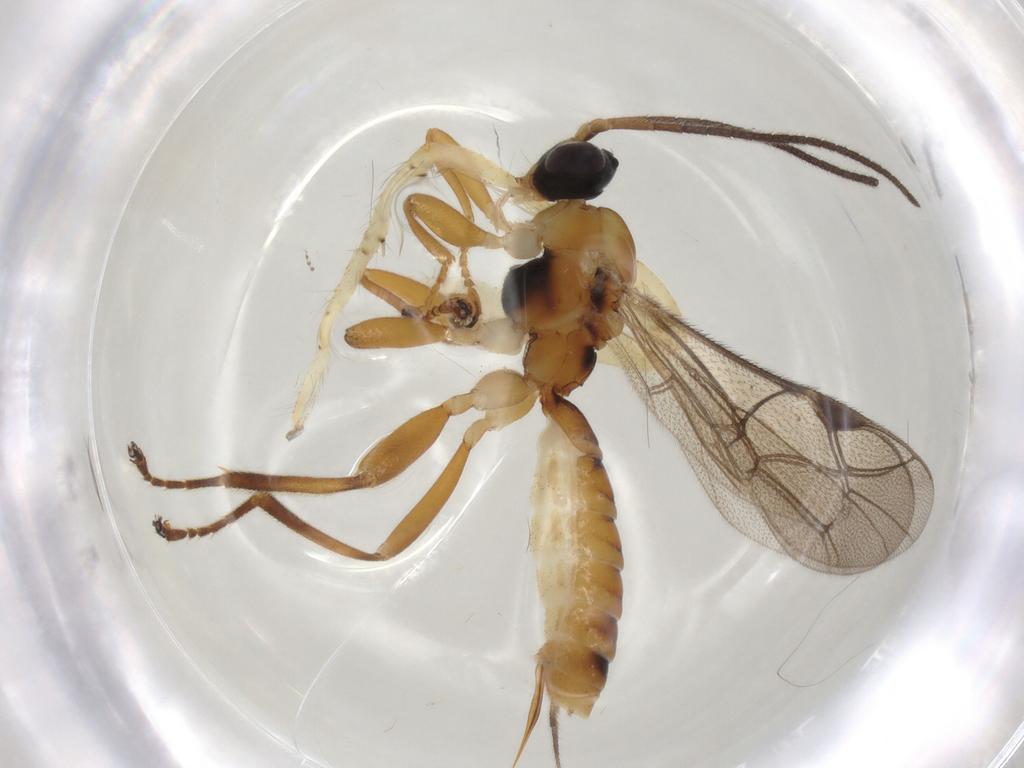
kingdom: Animalia
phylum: Arthropoda
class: Insecta
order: Hymenoptera
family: Ichneumonidae
